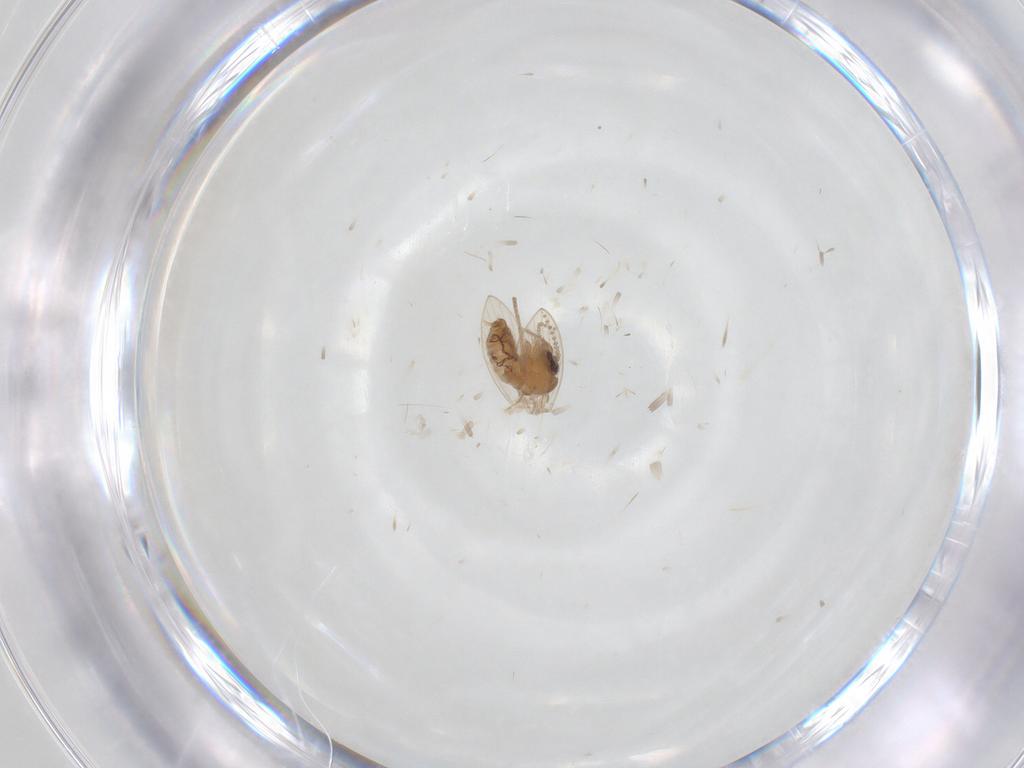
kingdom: Animalia
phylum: Arthropoda
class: Insecta
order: Diptera
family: Psychodidae
